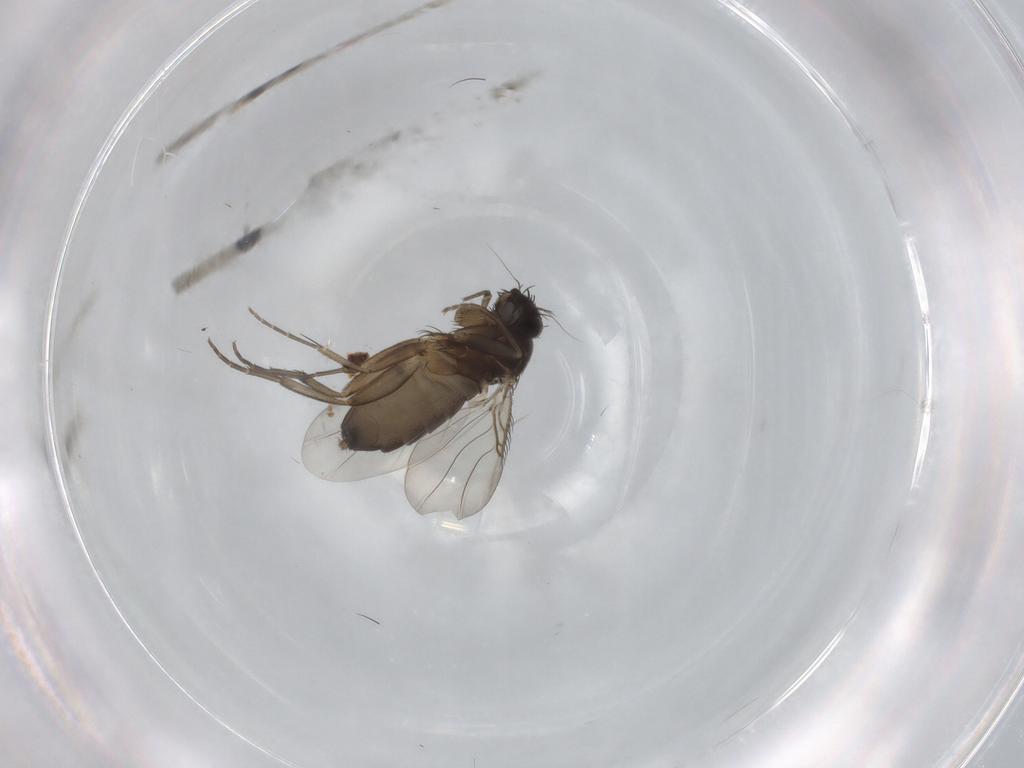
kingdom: Animalia
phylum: Arthropoda
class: Insecta
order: Diptera
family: Phoridae
